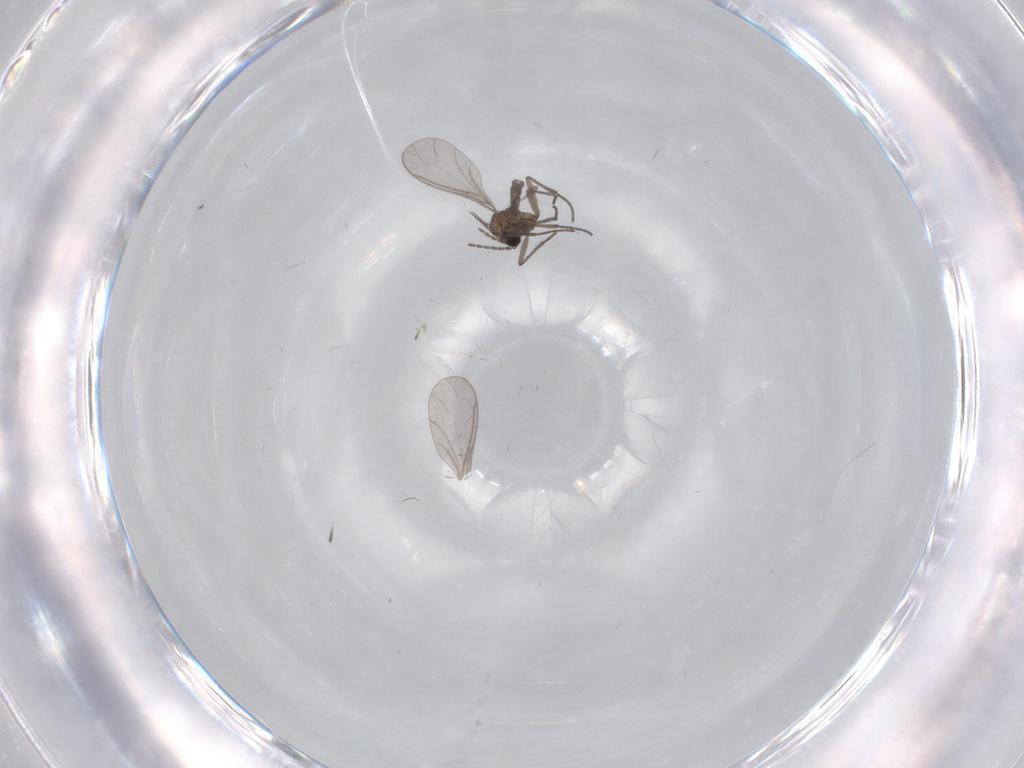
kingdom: Animalia
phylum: Arthropoda
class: Insecta
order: Diptera
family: Sciaridae
